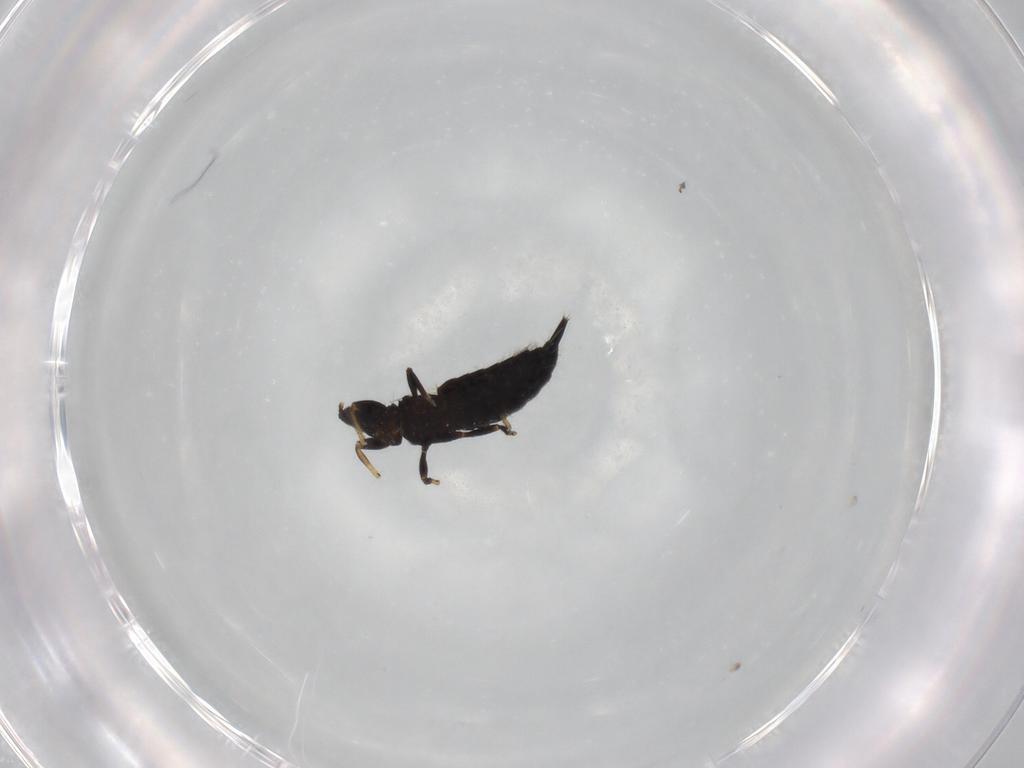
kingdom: Animalia
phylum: Arthropoda
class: Insecta
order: Thysanoptera
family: Phlaeothripidae
